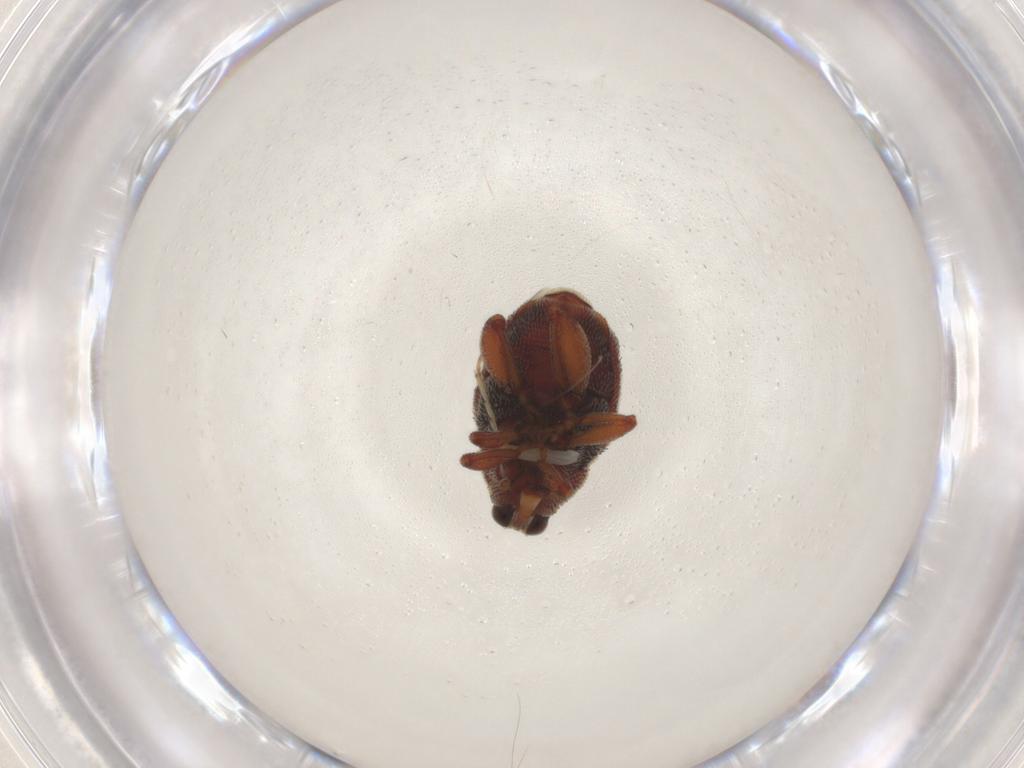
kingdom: Animalia
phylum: Arthropoda
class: Insecta
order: Coleoptera
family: Curculionidae
